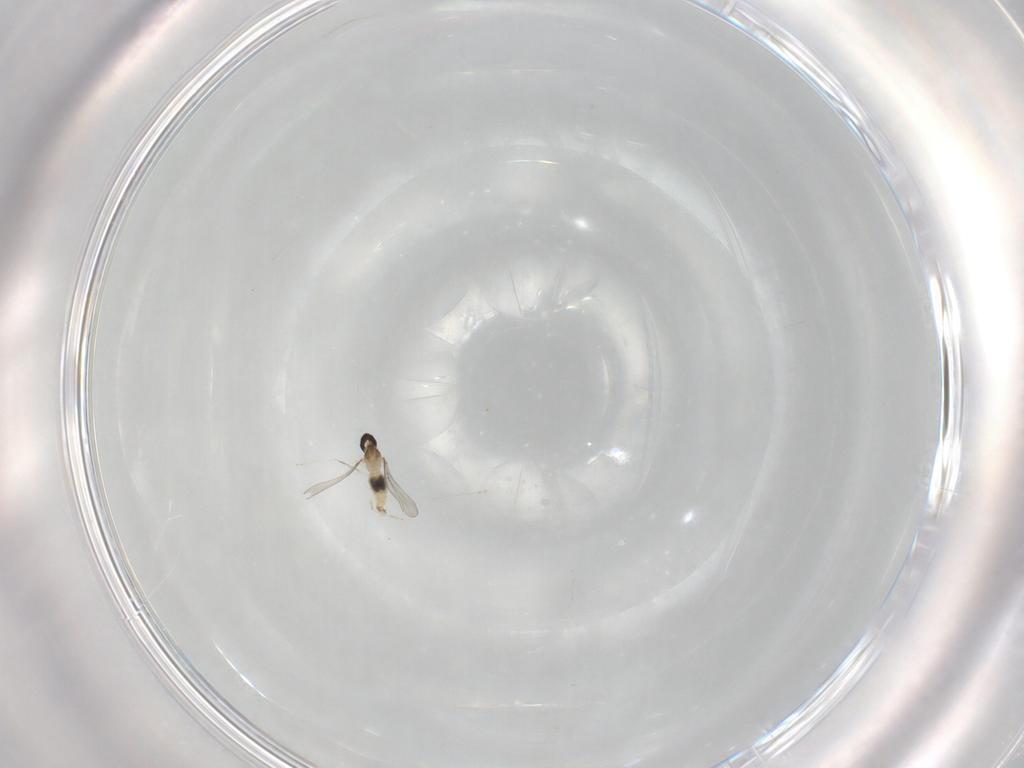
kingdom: Animalia
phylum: Arthropoda
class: Insecta
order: Diptera
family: Cecidomyiidae
